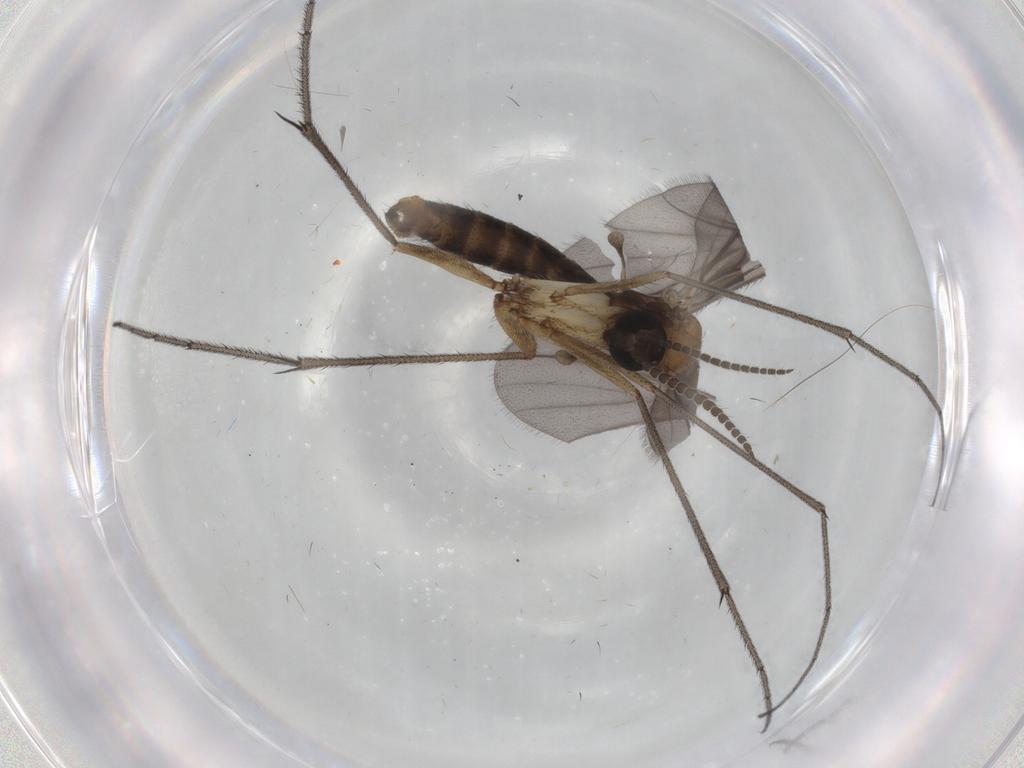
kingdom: Animalia
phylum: Arthropoda
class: Insecta
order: Diptera
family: Micropezidae
